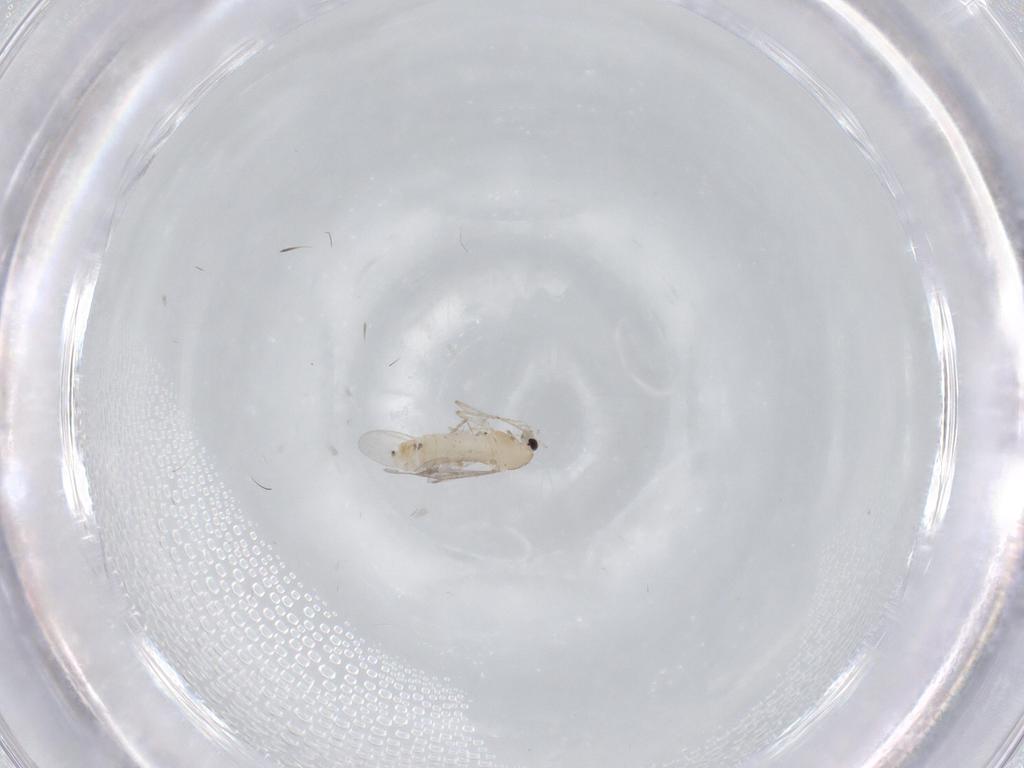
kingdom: Animalia
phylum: Arthropoda
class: Insecta
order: Diptera
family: Chironomidae
